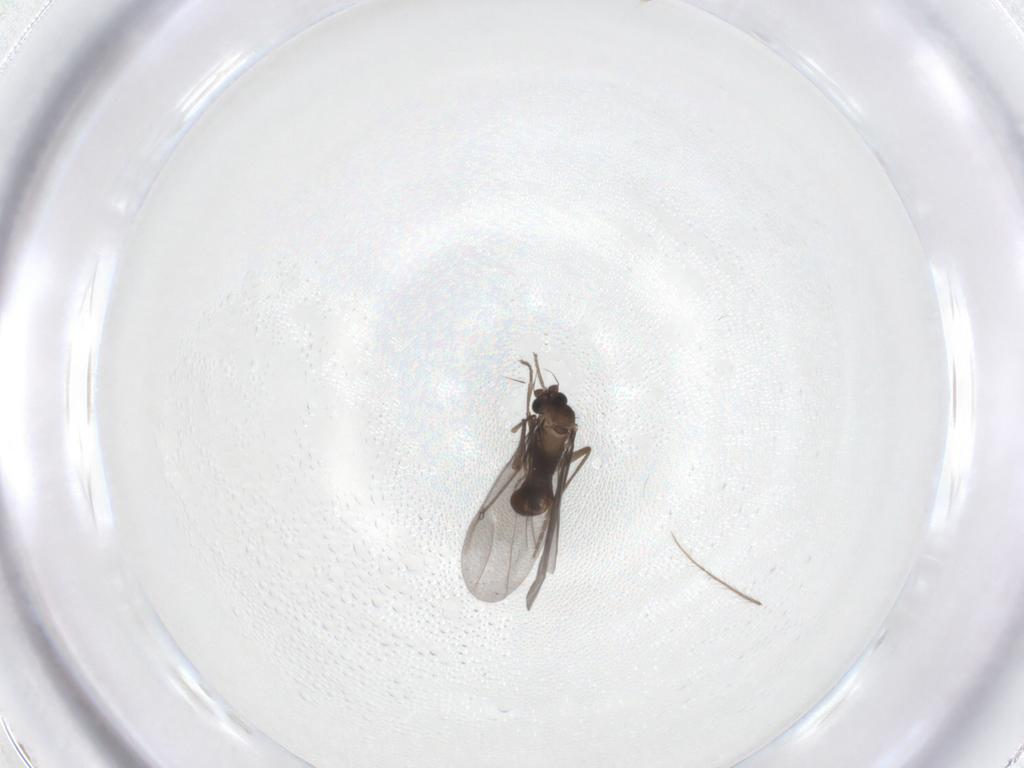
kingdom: Animalia
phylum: Arthropoda
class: Insecta
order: Diptera
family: Phoridae
